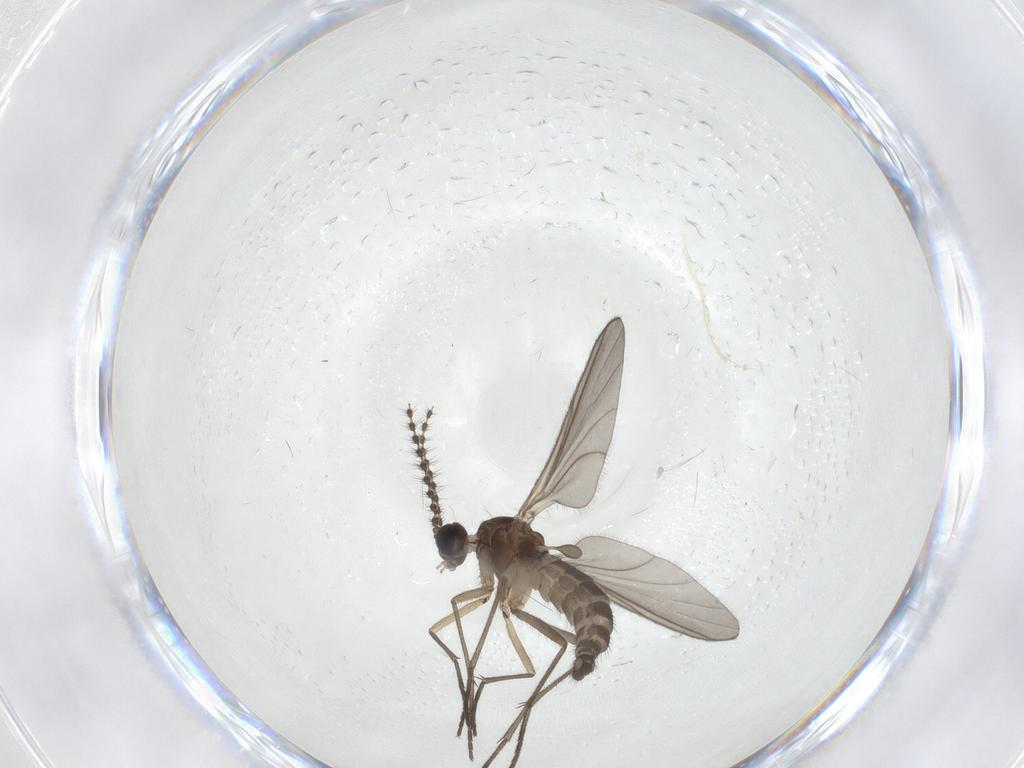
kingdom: Animalia
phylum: Arthropoda
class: Insecta
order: Diptera
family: Sciaridae
